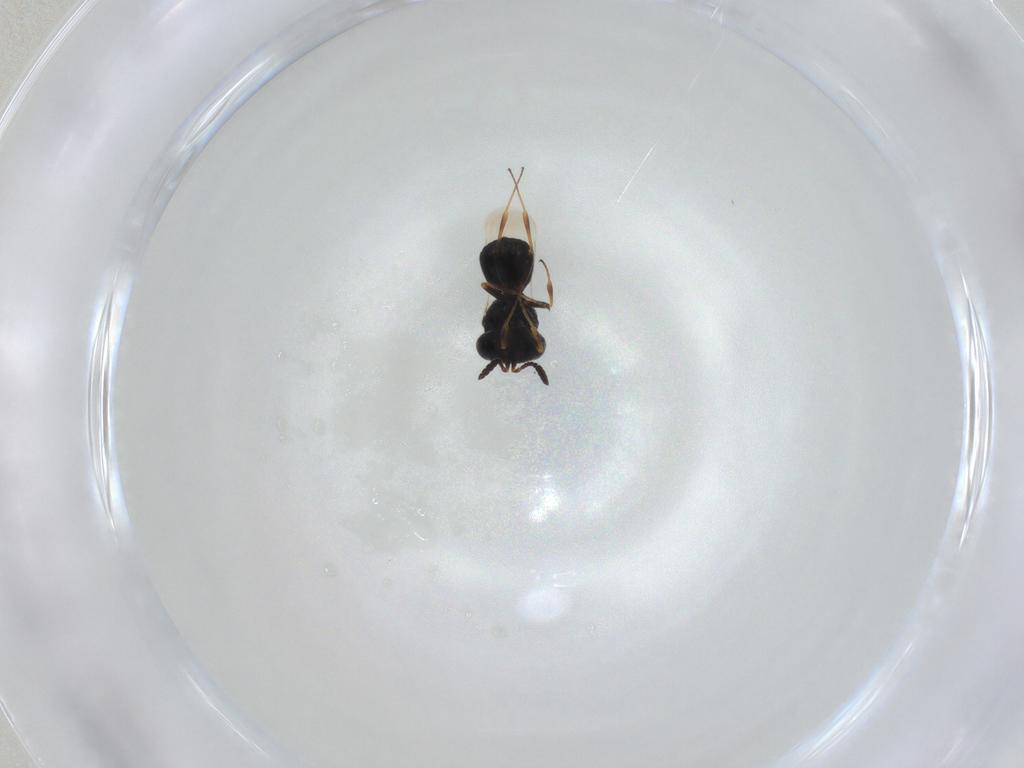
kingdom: Animalia
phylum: Arthropoda
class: Insecta
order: Hymenoptera
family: Scelionidae
